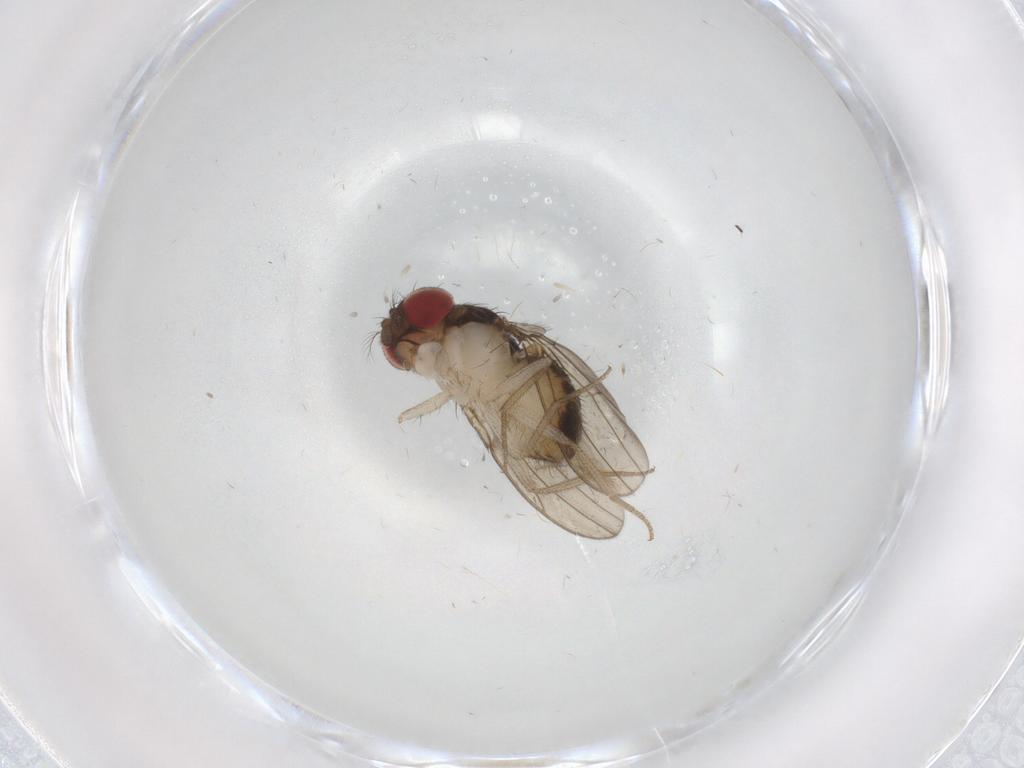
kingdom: Animalia
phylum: Arthropoda
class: Insecta
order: Diptera
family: Drosophilidae
